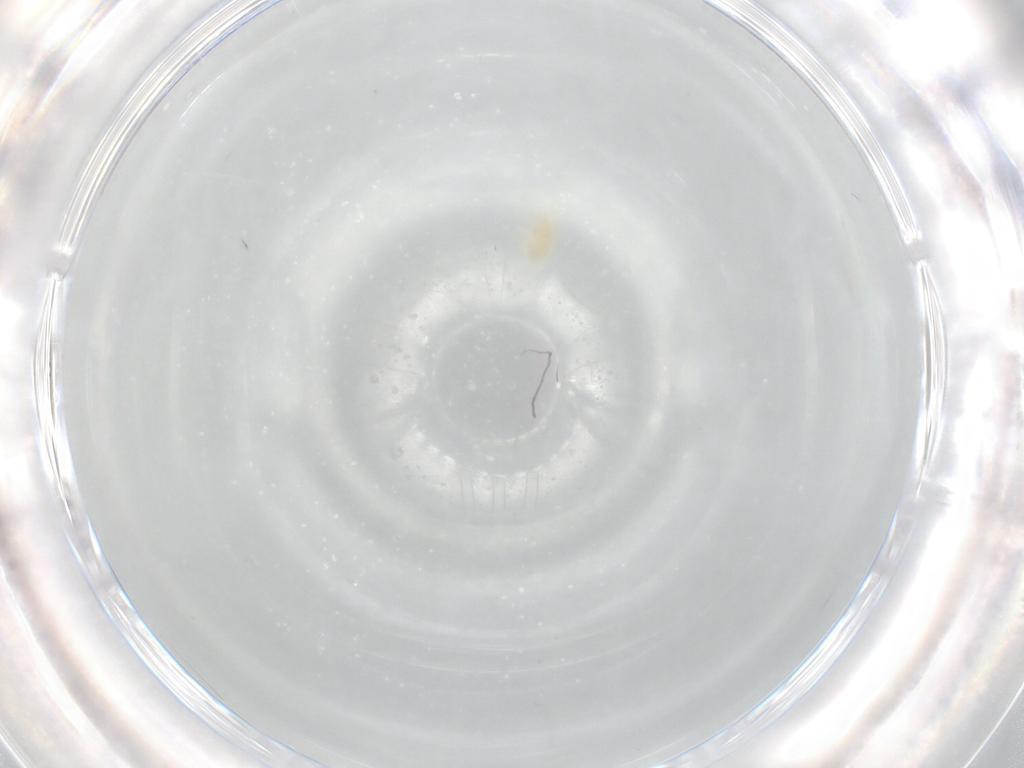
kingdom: Animalia
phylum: Arthropoda
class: Arachnida
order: Trombidiformes
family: Eupodidae
